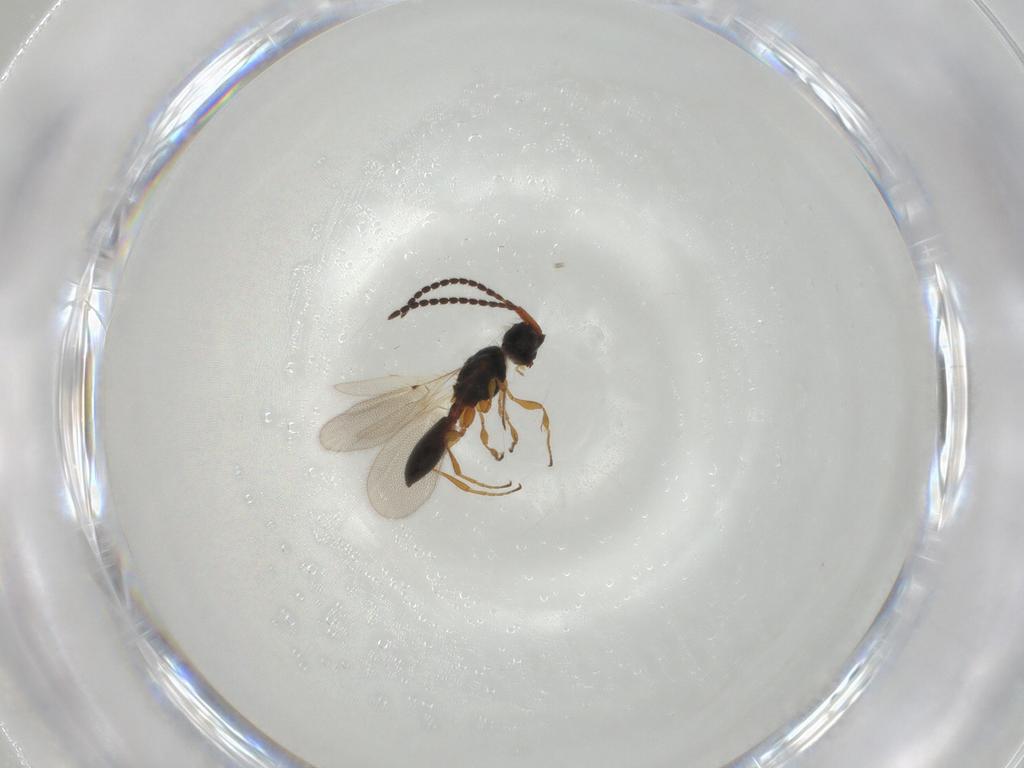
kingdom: Animalia
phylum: Arthropoda
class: Insecta
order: Hymenoptera
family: Diapriidae
